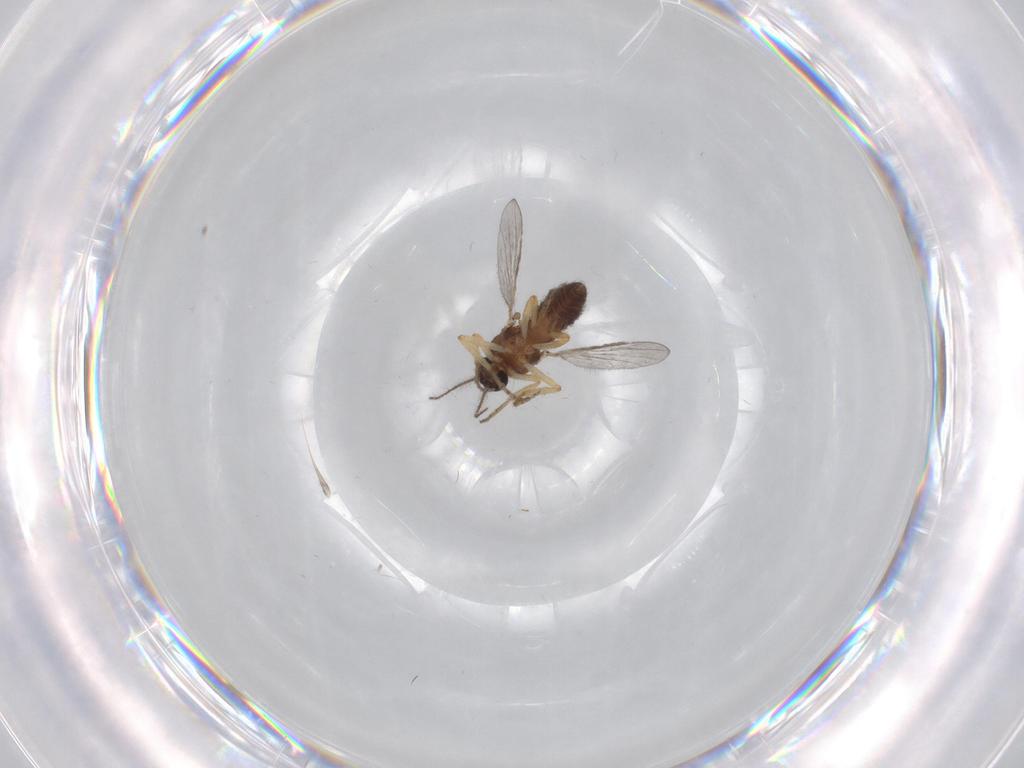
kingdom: Animalia
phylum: Arthropoda
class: Insecta
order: Diptera
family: Ceratopogonidae
